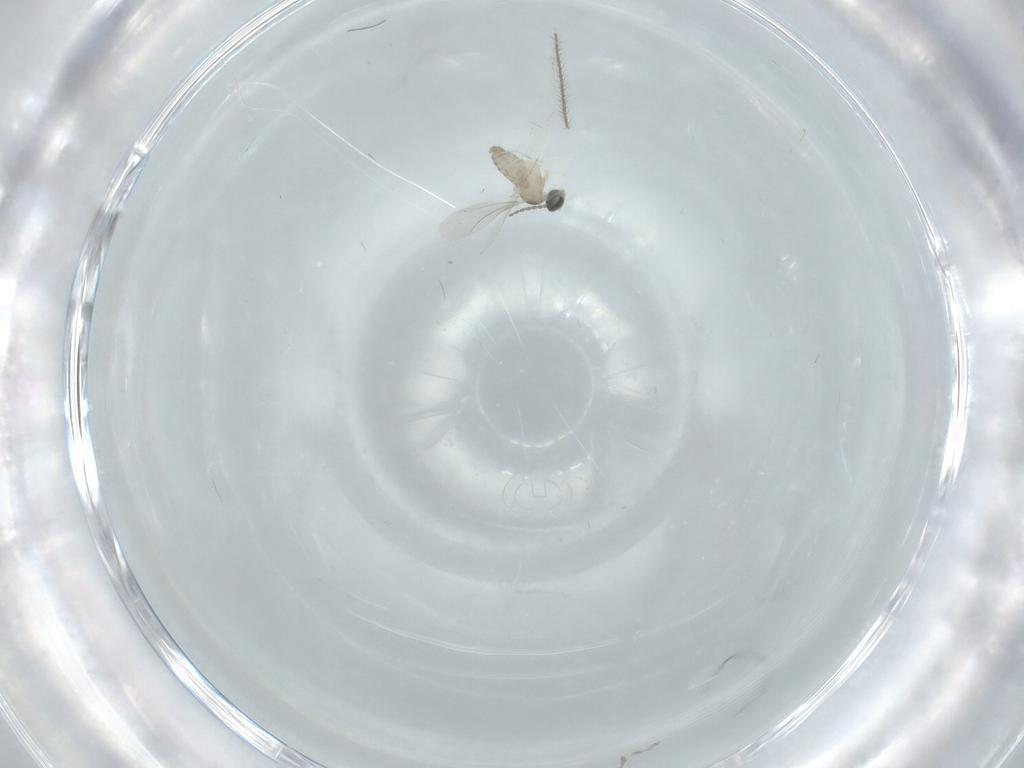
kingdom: Animalia
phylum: Arthropoda
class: Insecta
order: Diptera
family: Cecidomyiidae
